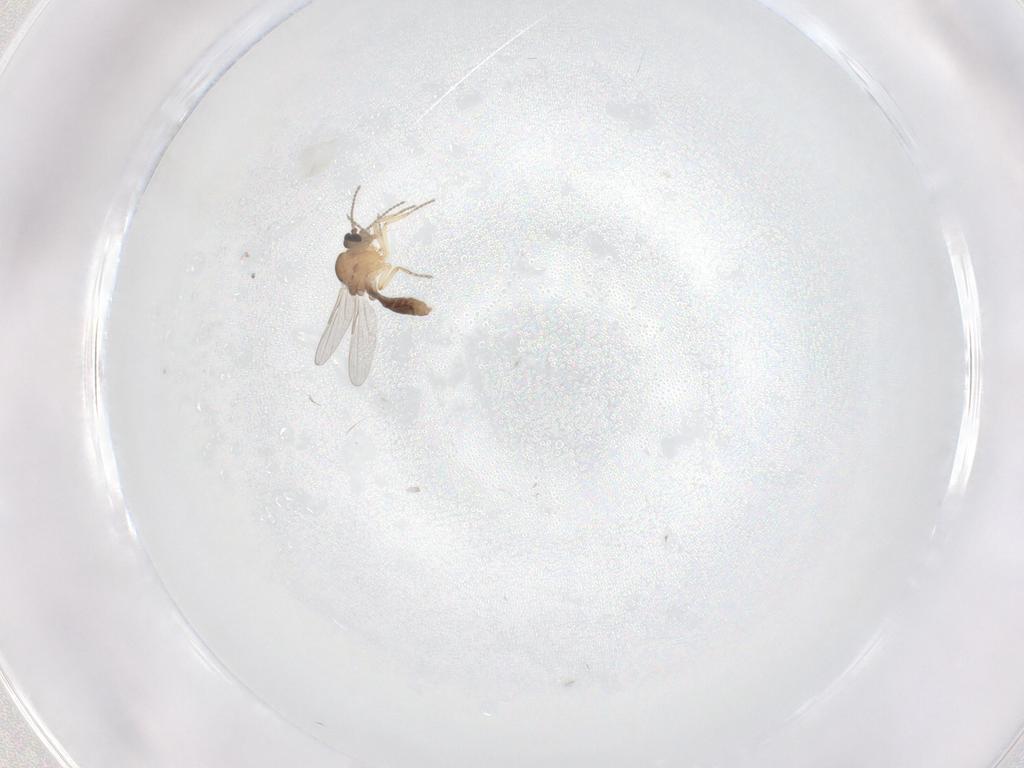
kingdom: Animalia
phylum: Arthropoda
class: Insecta
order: Diptera
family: Ceratopogonidae
